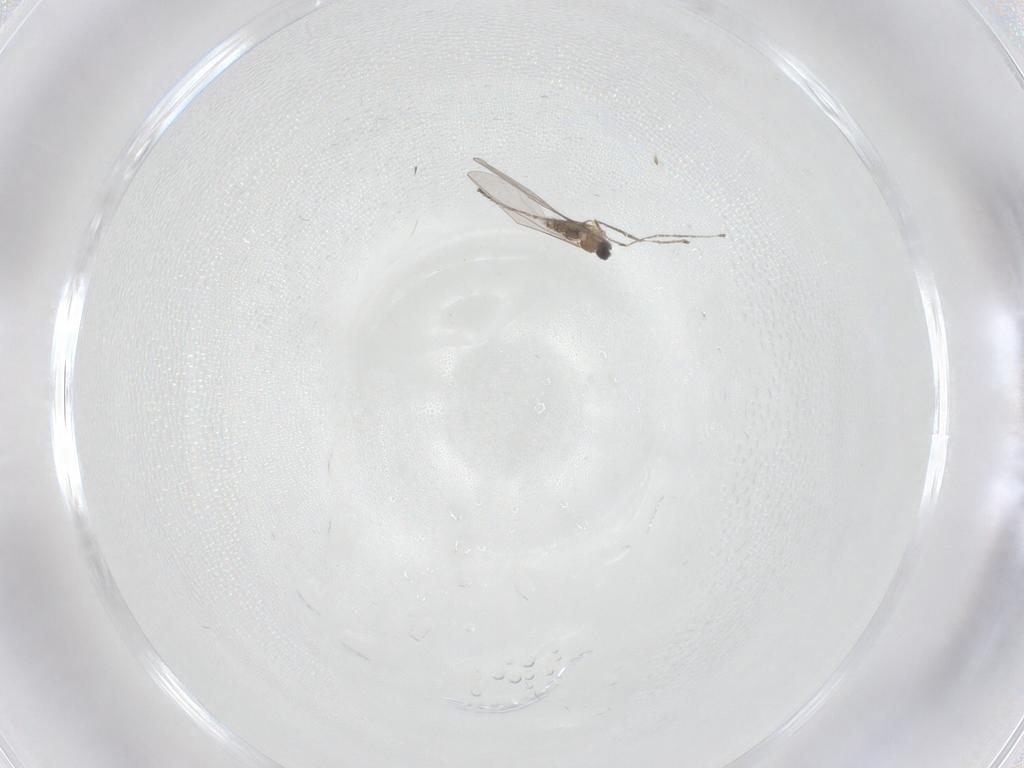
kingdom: Animalia
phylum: Arthropoda
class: Insecta
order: Diptera
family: Cecidomyiidae
